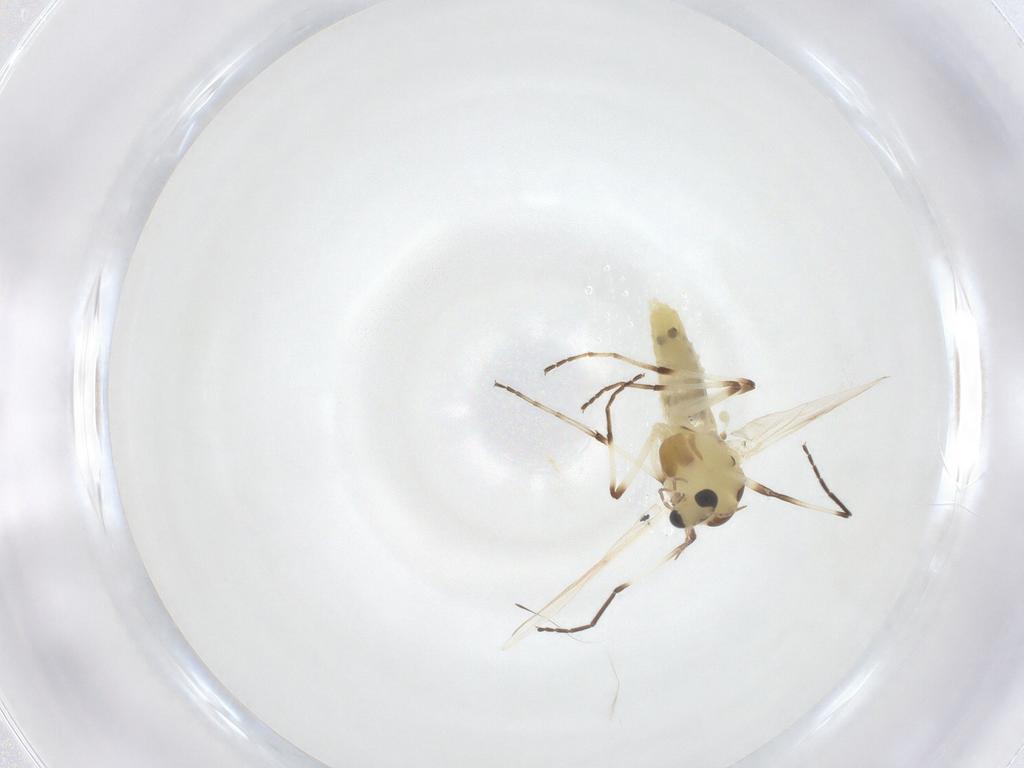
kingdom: Animalia
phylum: Arthropoda
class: Insecta
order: Diptera
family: Chironomidae
